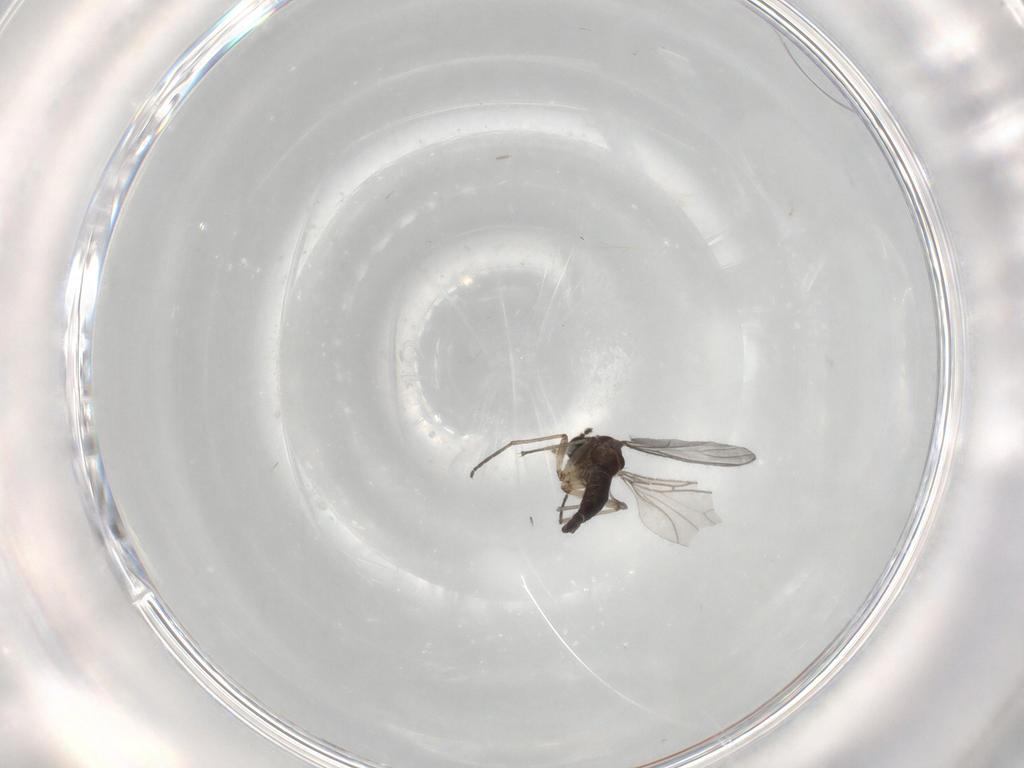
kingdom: Animalia
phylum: Arthropoda
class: Insecta
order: Diptera
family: Sciaridae
